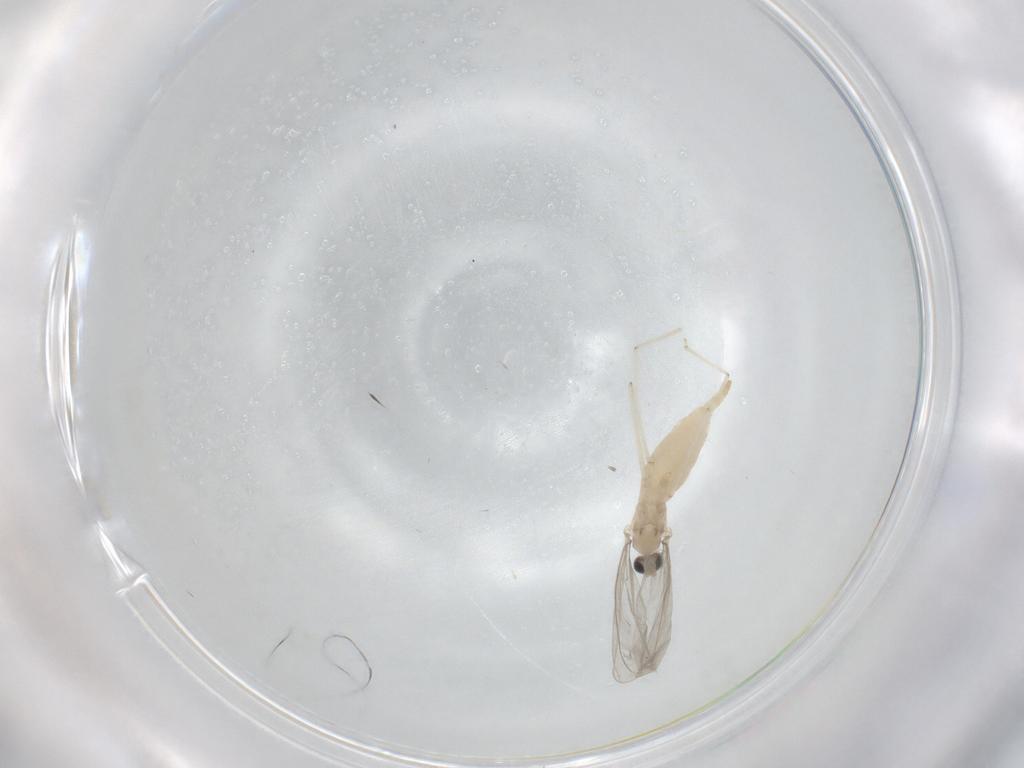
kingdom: Animalia
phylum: Arthropoda
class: Insecta
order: Diptera
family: Cecidomyiidae
